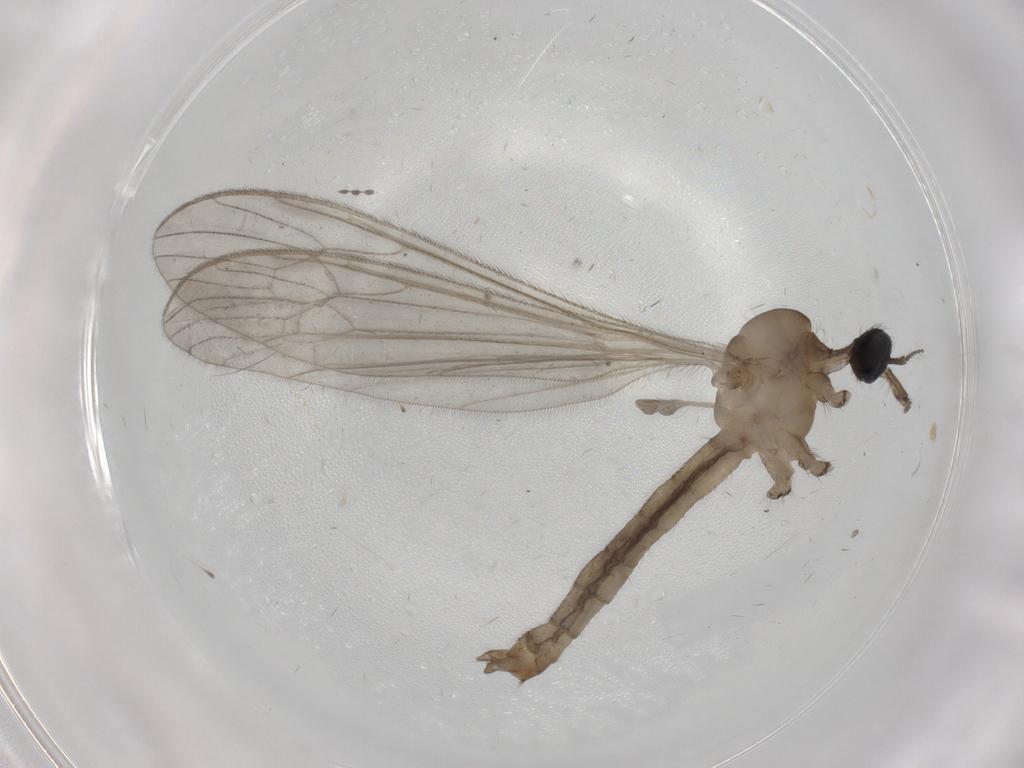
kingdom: Animalia
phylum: Arthropoda
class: Insecta
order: Diptera
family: Limoniidae
